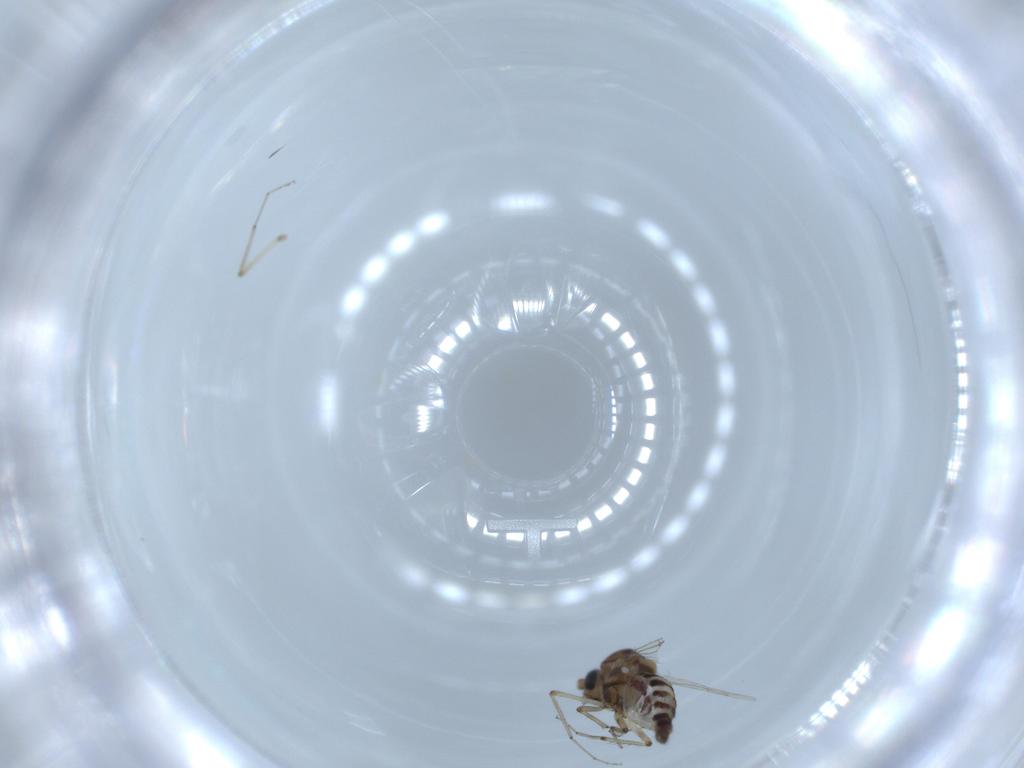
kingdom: Animalia
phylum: Arthropoda
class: Insecta
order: Diptera
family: Ceratopogonidae
